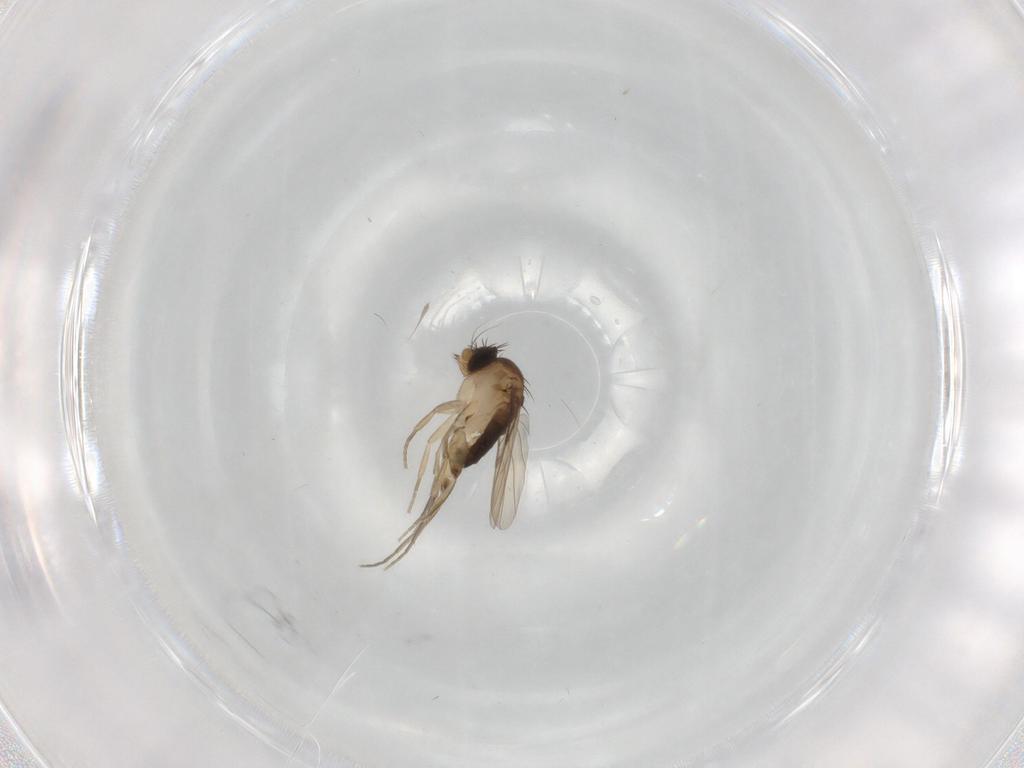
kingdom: Animalia
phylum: Arthropoda
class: Insecta
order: Diptera
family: Phoridae
